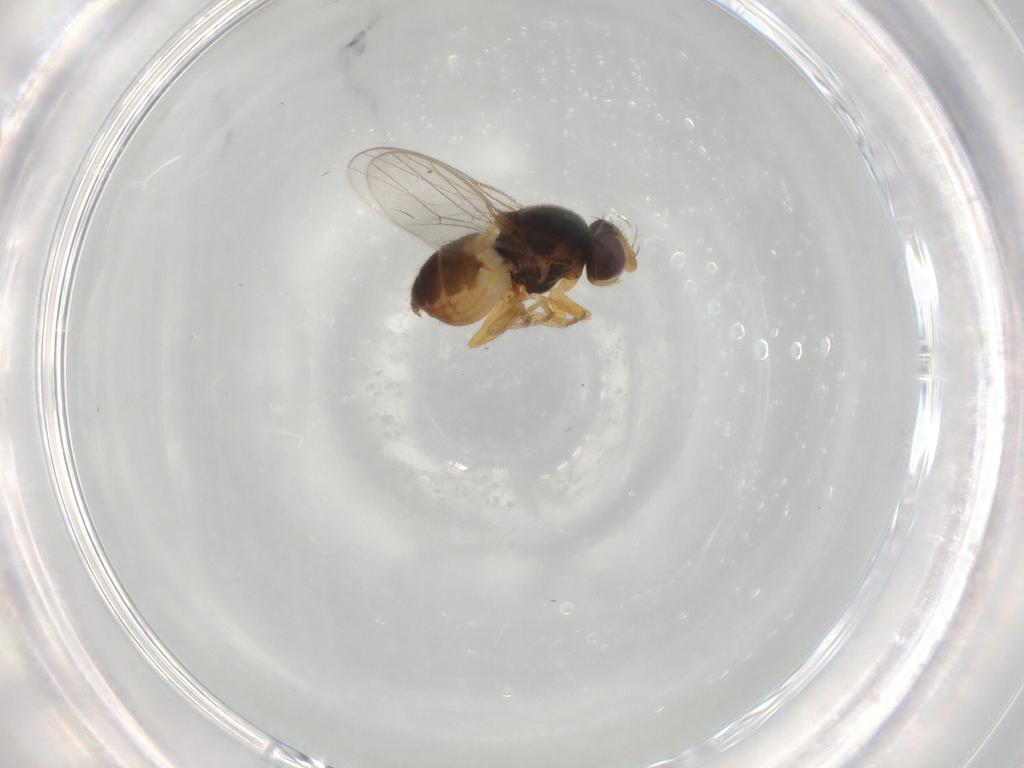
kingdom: Animalia
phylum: Arthropoda
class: Insecta
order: Diptera
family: Chloropidae
